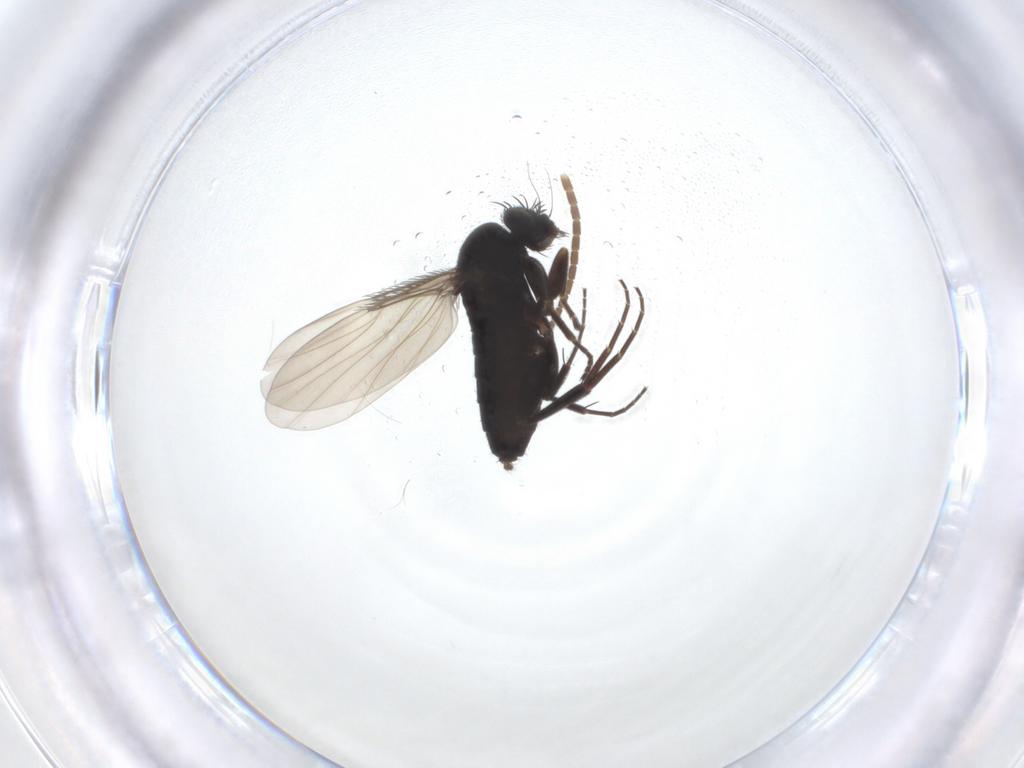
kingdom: Animalia
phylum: Arthropoda
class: Insecta
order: Diptera
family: Phoridae
